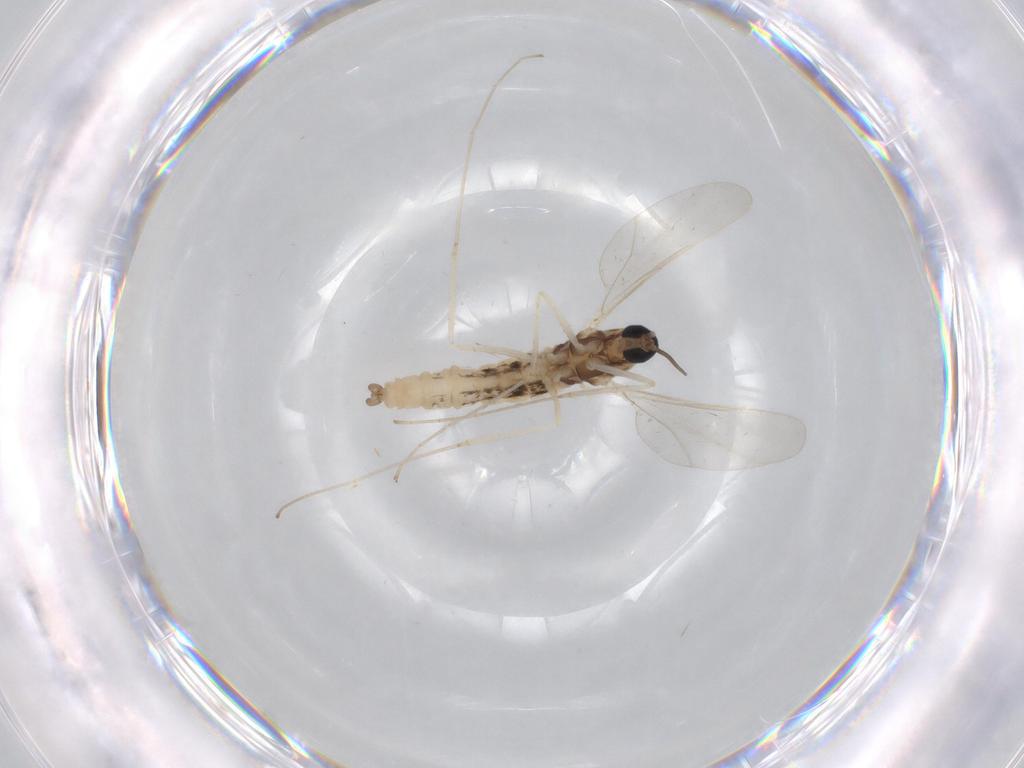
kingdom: Animalia
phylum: Arthropoda
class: Insecta
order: Diptera
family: Cecidomyiidae
